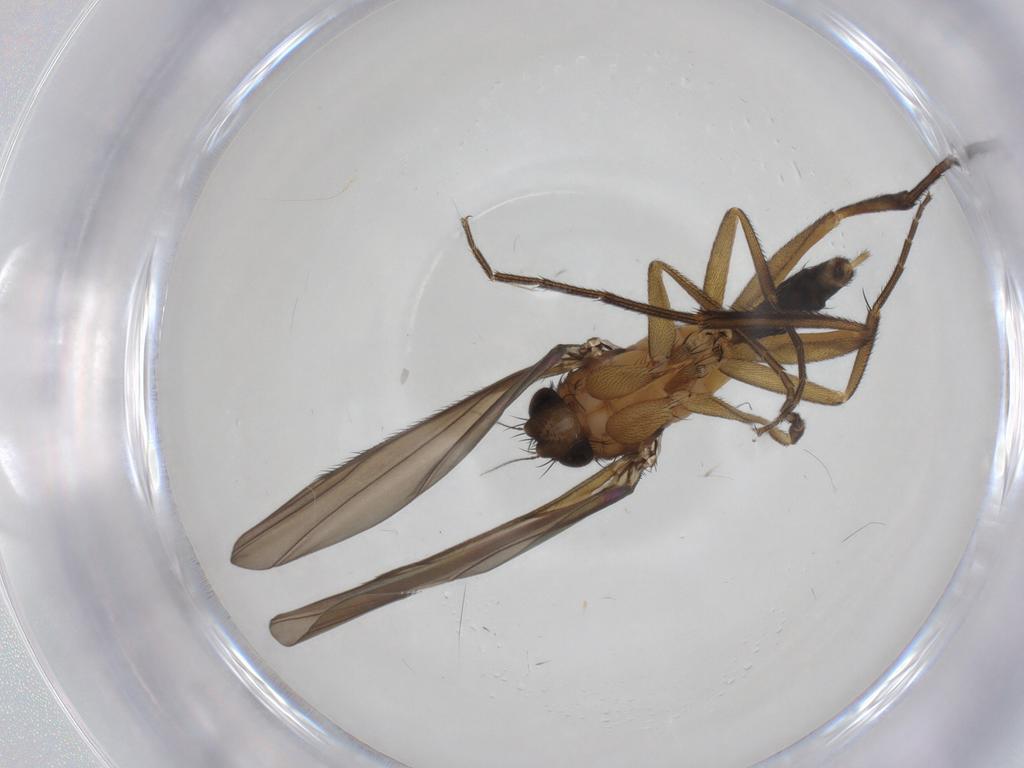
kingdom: Animalia
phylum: Arthropoda
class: Insecta
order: Diptera
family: Phoridae
